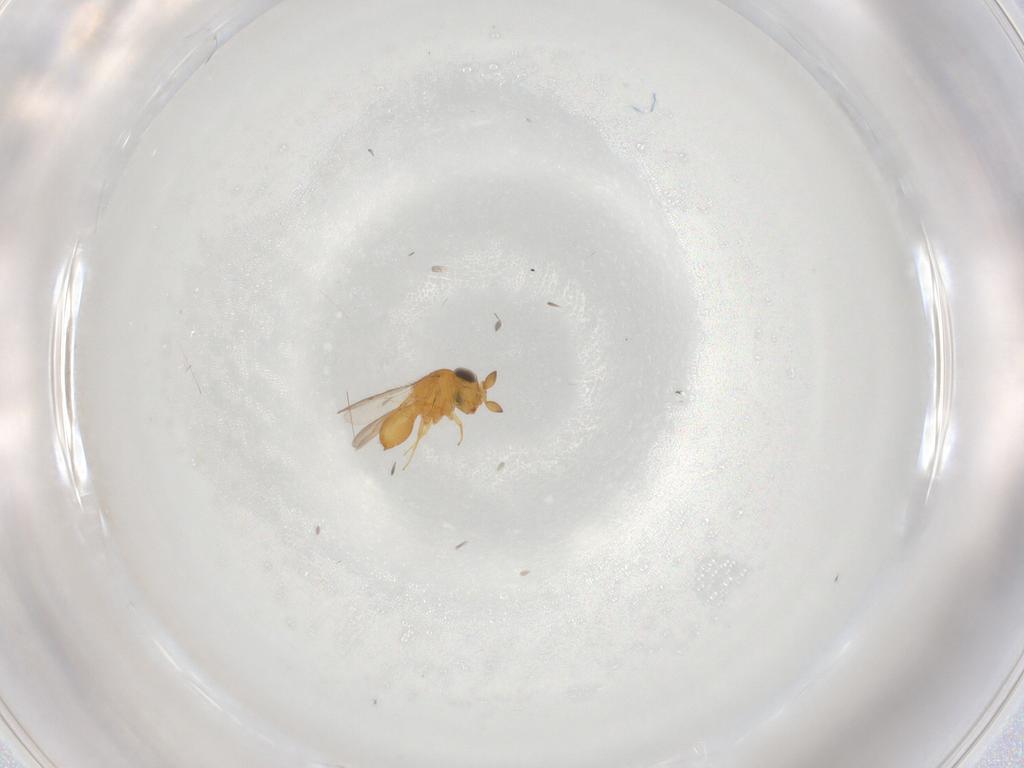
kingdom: Animalia
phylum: Arthropoda
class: Insecta
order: Hymenoptera
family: Scelionidae
